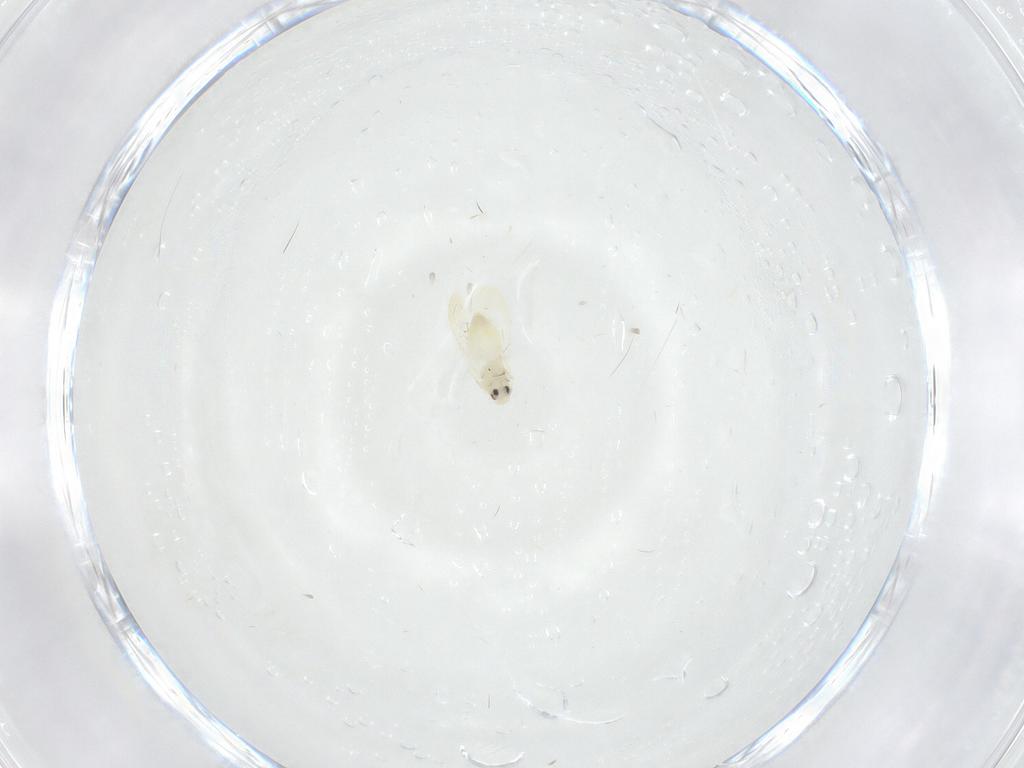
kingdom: Animalia
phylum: Arthropoda
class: Insecta
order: Hemiptera
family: Aleyrodidae
